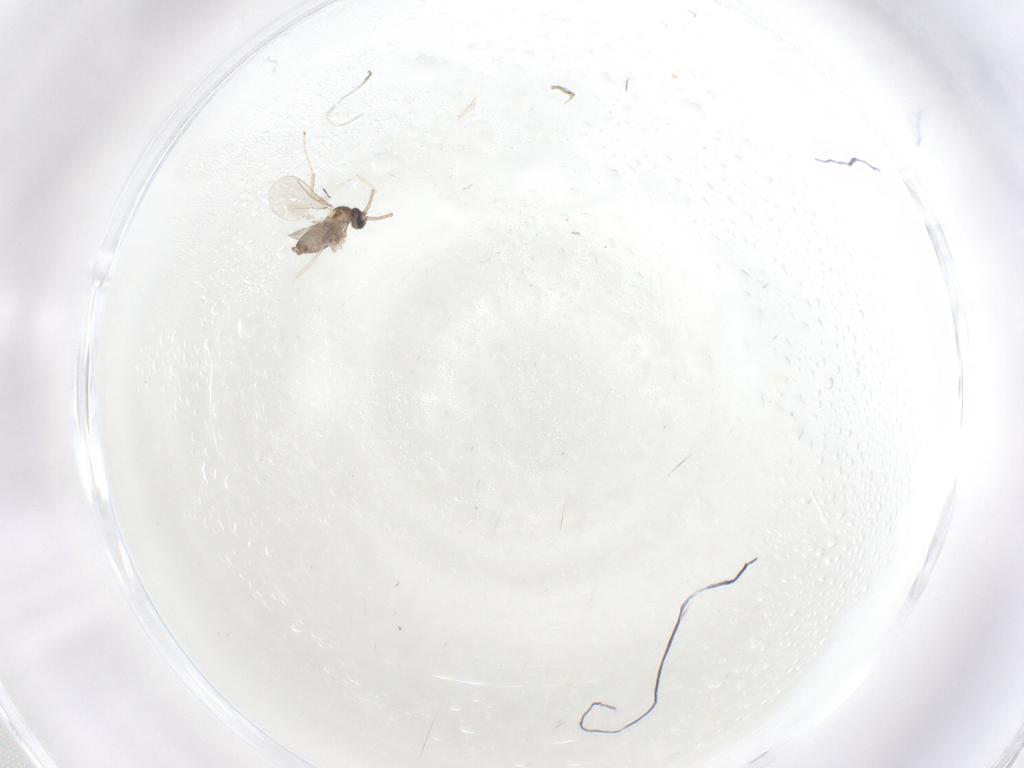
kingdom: Animalia
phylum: Arthropoda
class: Insecta
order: Diptera
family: Cecidomyiidae
